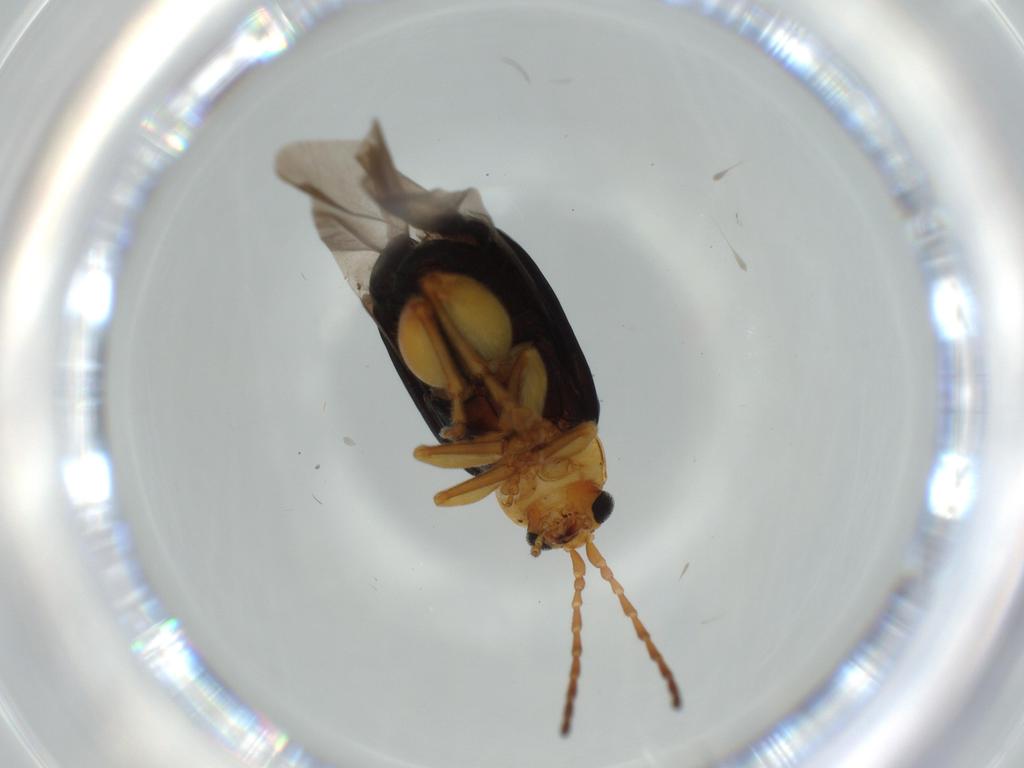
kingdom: Animalia
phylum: Arthropoda
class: Insecta
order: Coleoptera
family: Chrysomelidae
